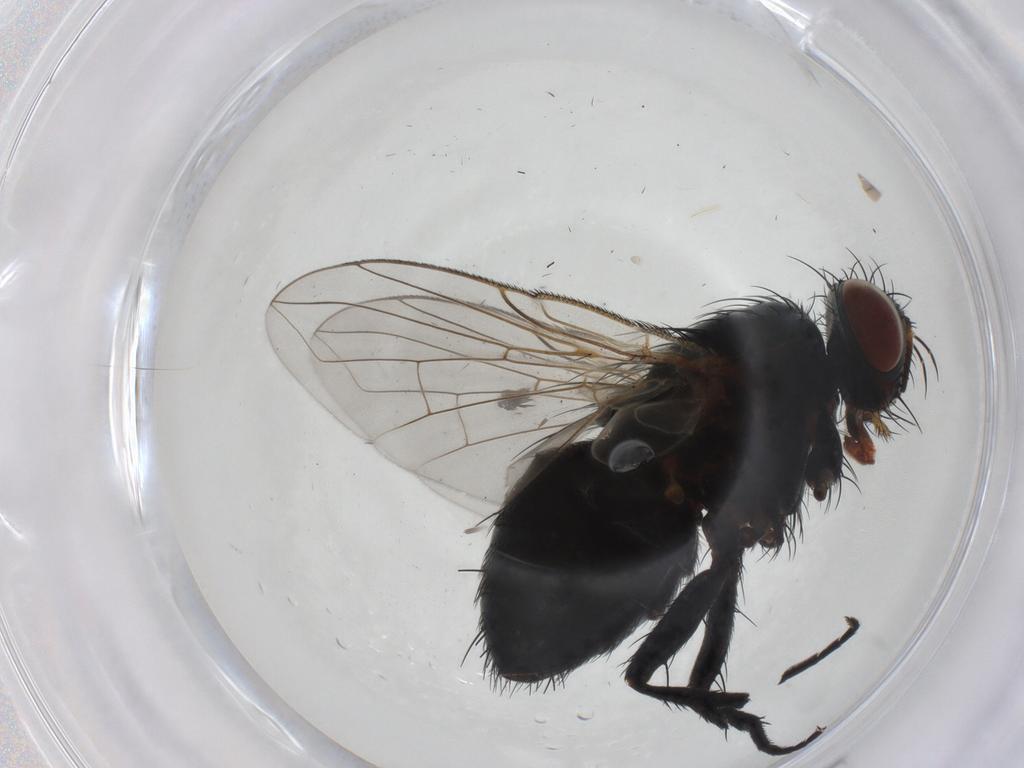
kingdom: Animalia
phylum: Arthropoda
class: Insecta
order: Diptera
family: Tachinidae
